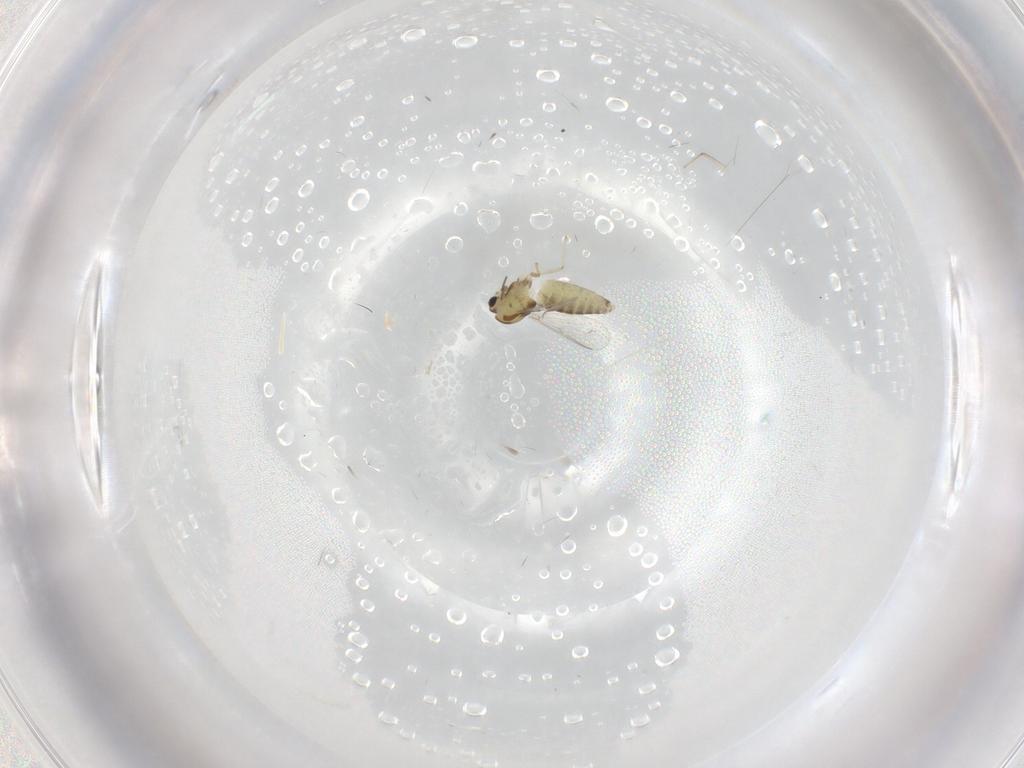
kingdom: Animalia
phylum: Arthropoda
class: Insecta
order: Diptera
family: Chironomidae
